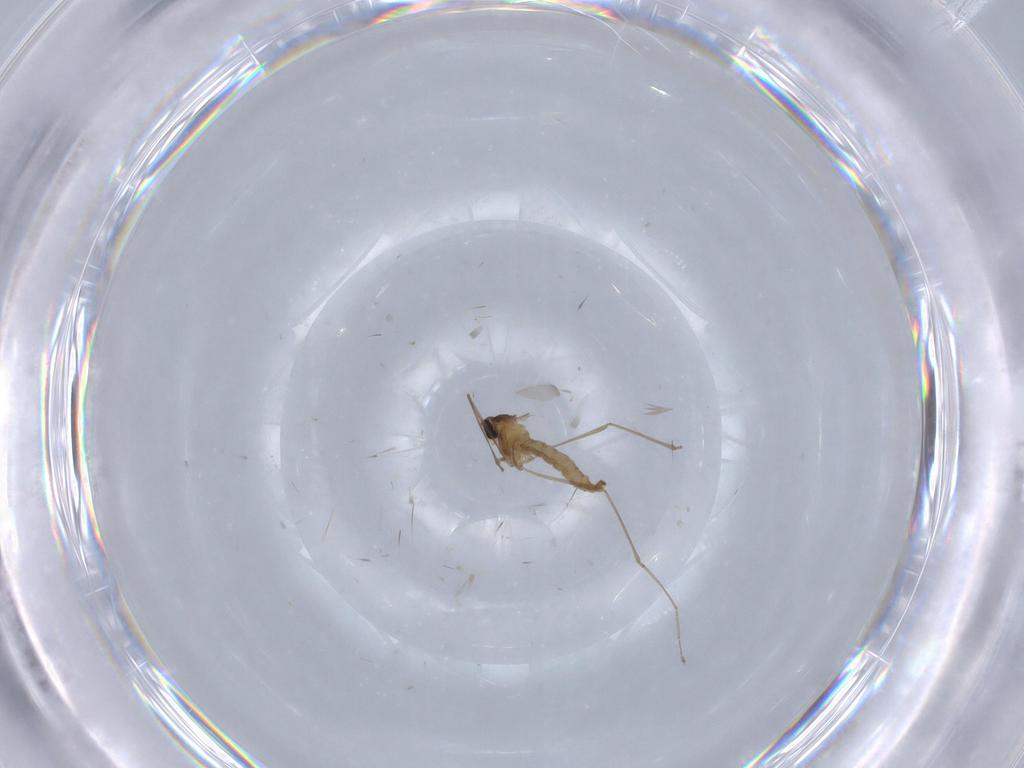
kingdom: Animalia
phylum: Arthropoda
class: Insecta
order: Diptera
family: Cecidomyiidae
